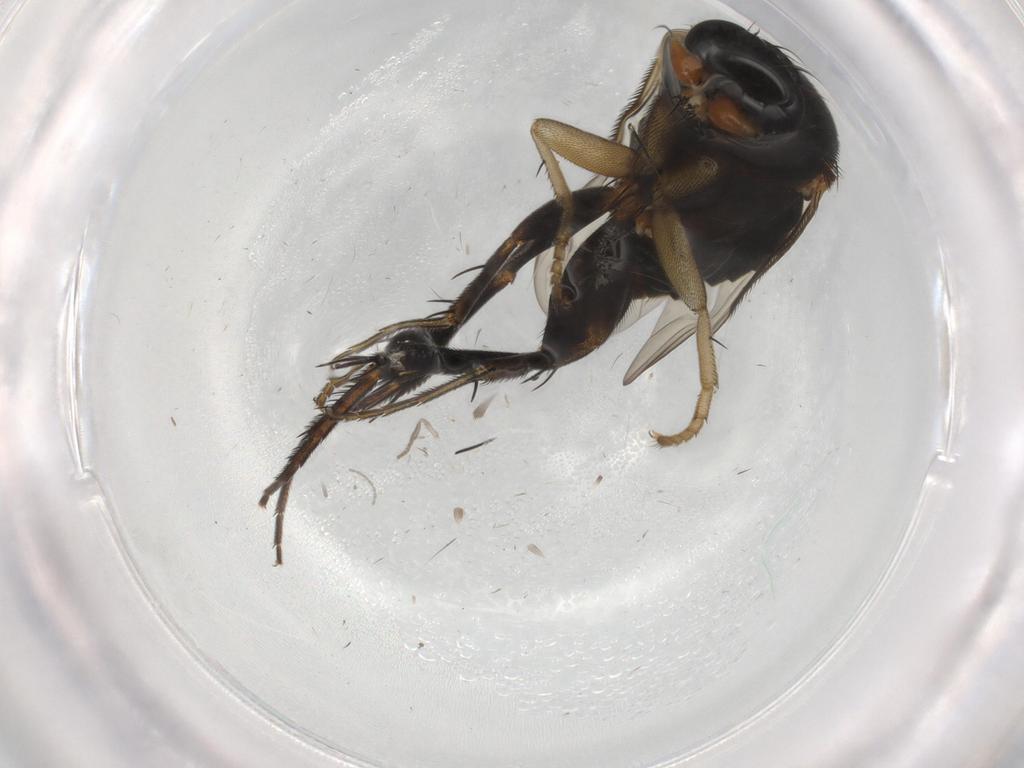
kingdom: Animalia
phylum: Arthropoda
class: Insecta
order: Diptera
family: Phoridae
